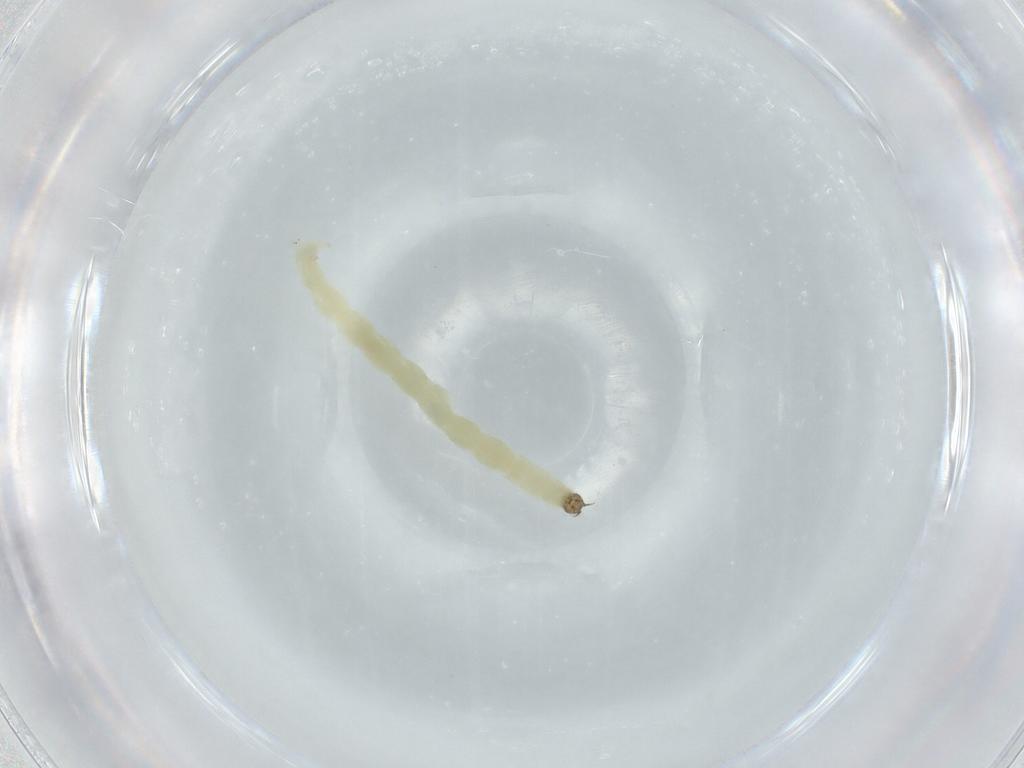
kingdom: Animalia
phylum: Arthropoda
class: Insecta
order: Diptera
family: Chironomidae
